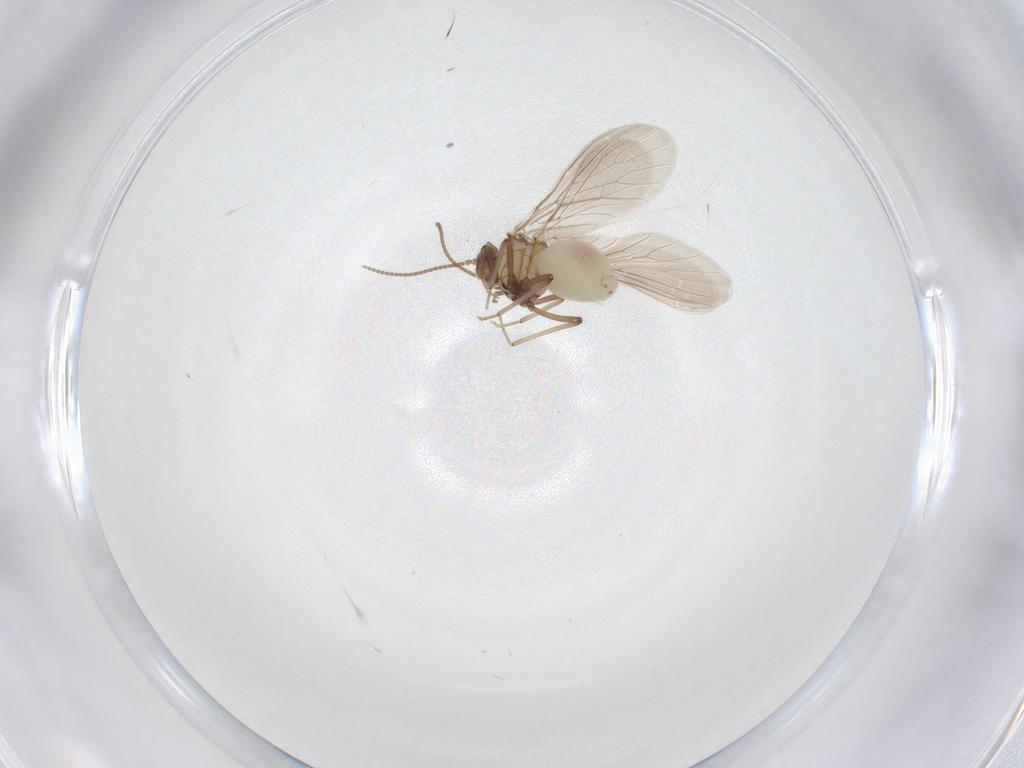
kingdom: Animalia
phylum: Arthropoda
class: Insecta
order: Neuroptera
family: Coniopterygidae
